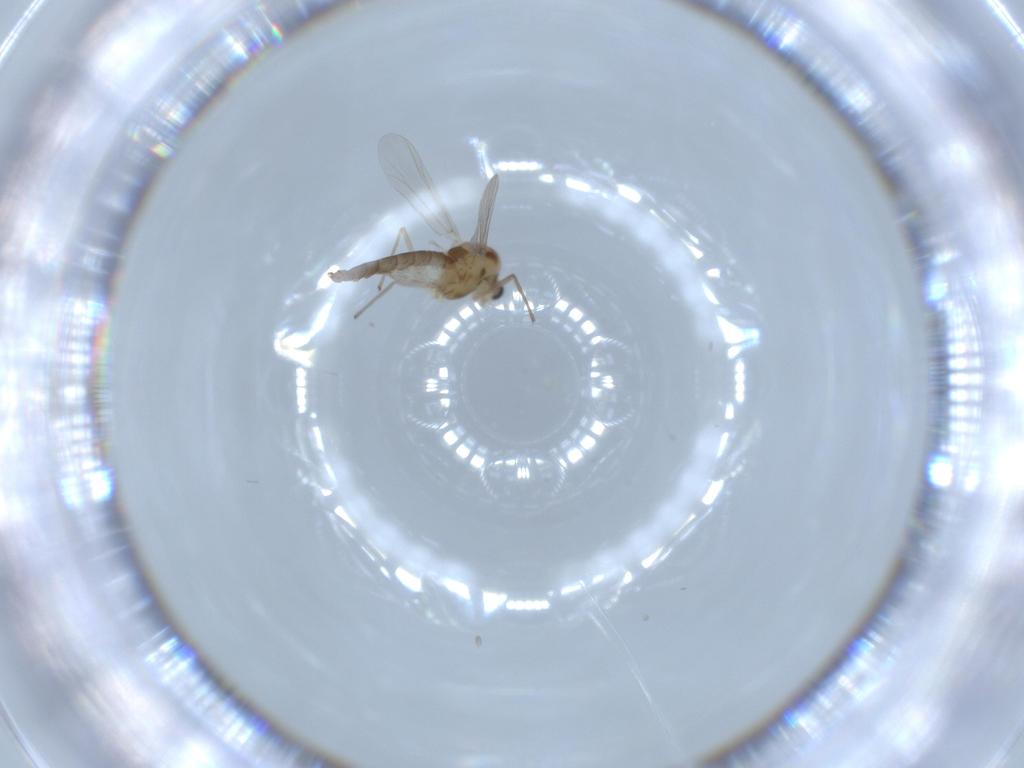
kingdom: Animalia
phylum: Arthropoda
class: Insecta
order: Diptera
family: Chironomidae
